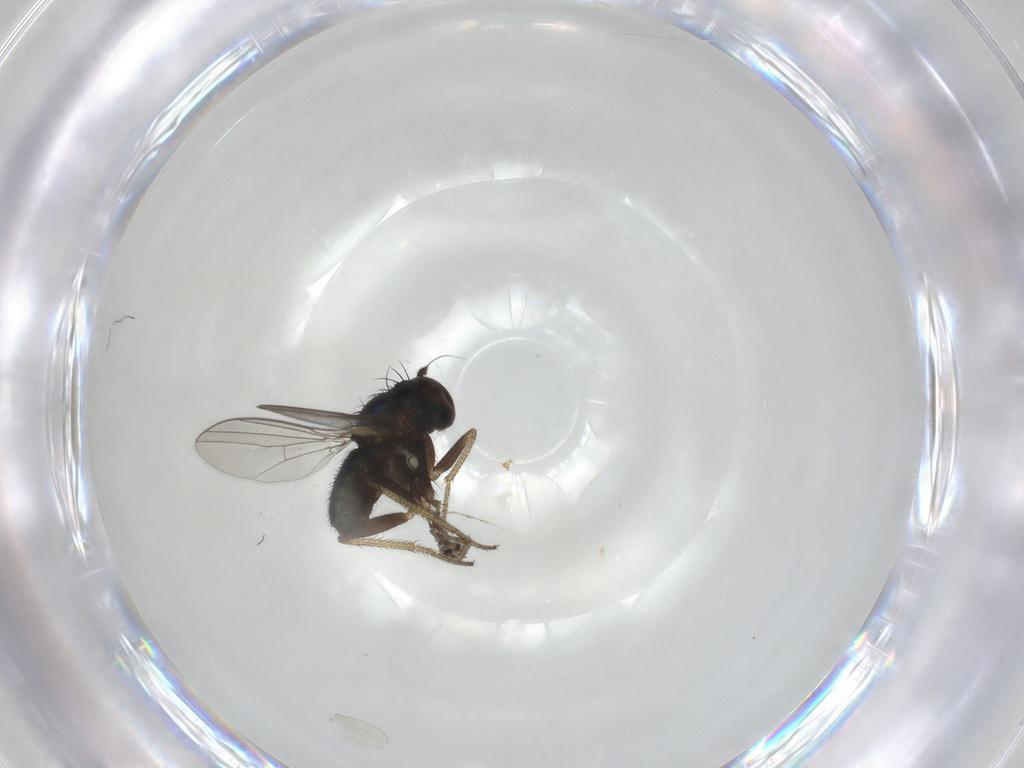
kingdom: Animalia
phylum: Arthropoda
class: Insecta
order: Diptera
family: Cecidomyiidae
